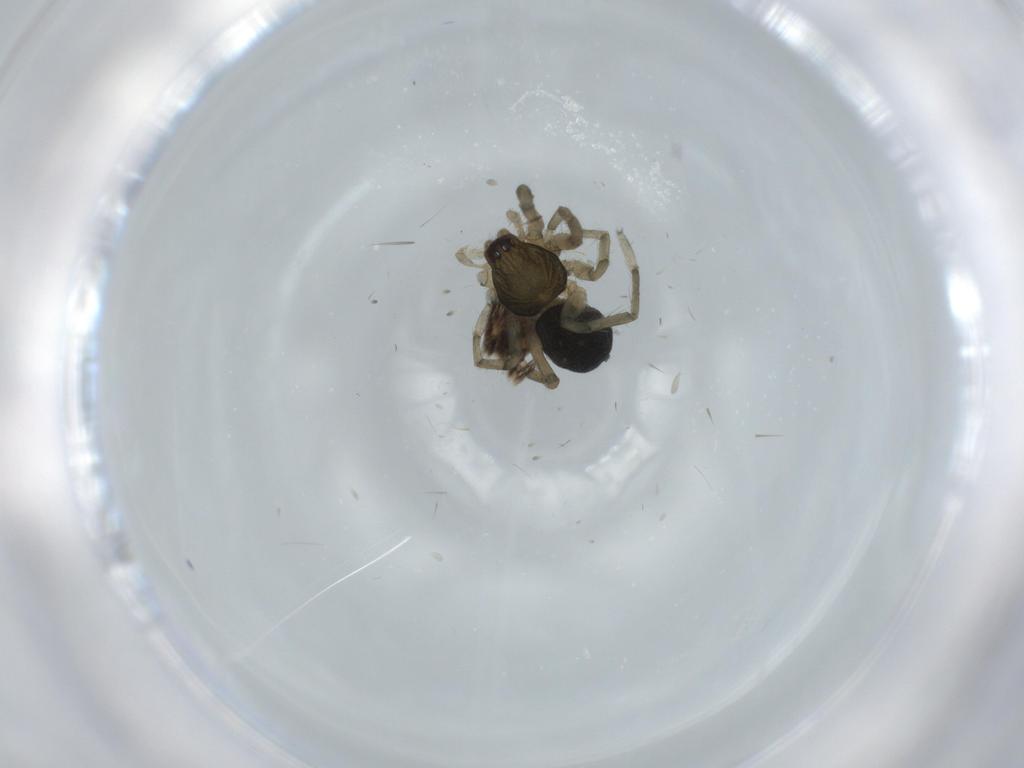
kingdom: Animalia
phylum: Arthropoda
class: Arachnida
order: Araneae
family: Miturgidae
